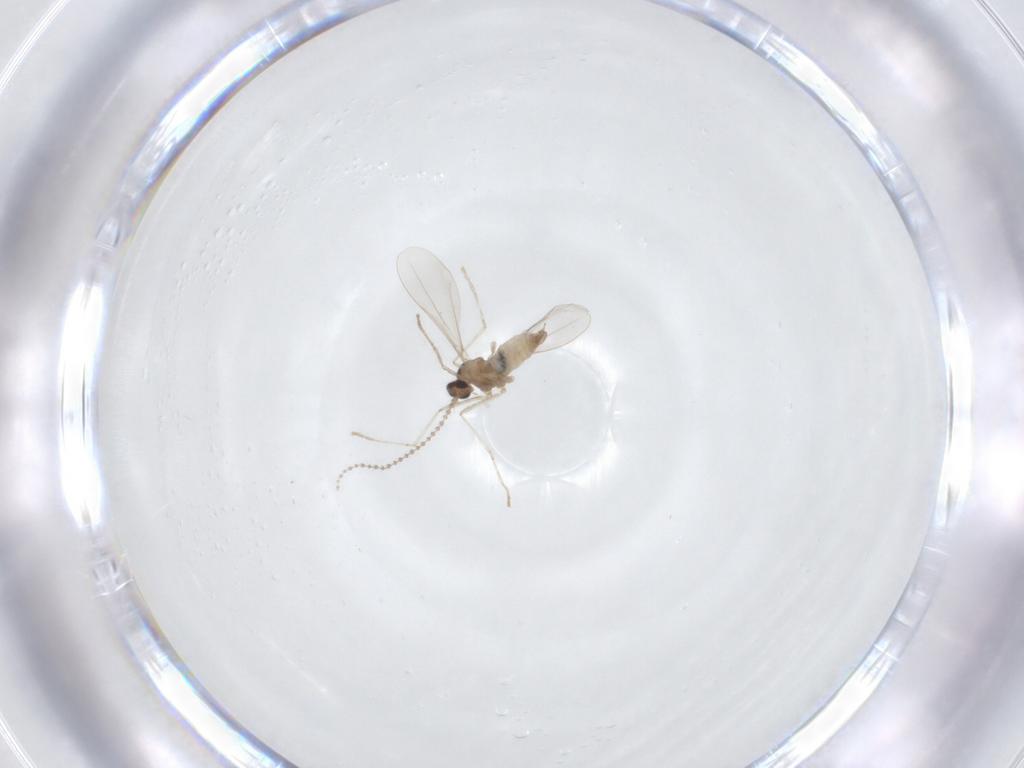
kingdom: Animalia
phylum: Arthropoda
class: Insecta
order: Diptera
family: Cecidomyiidae
